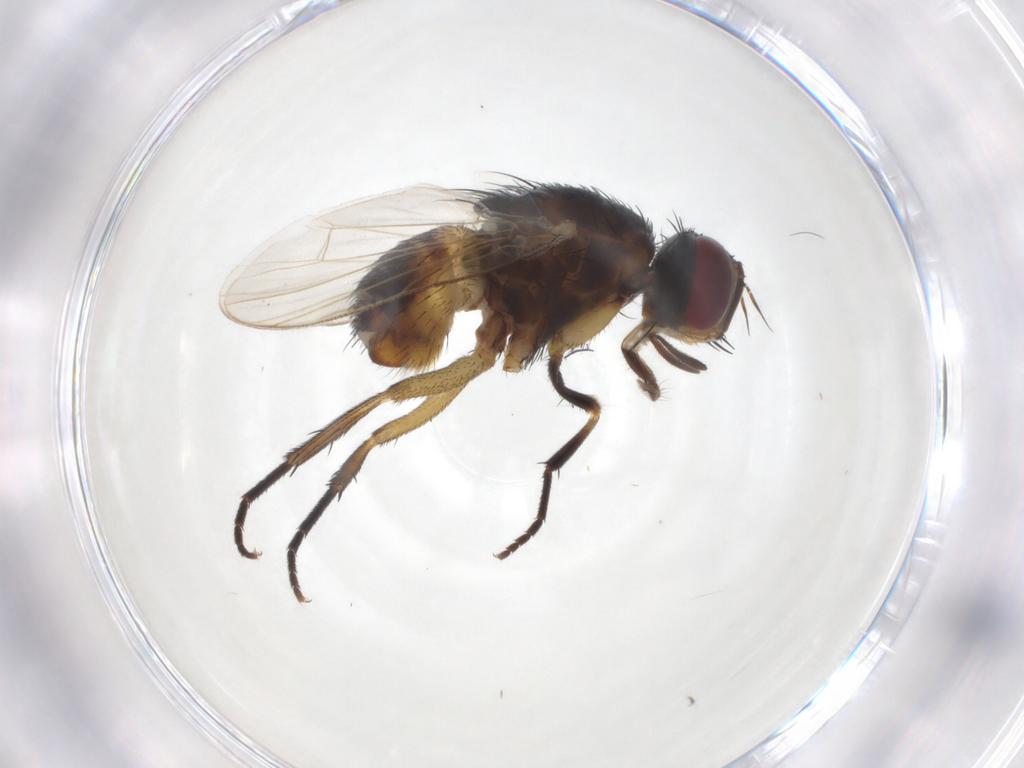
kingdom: Animalia
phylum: Arthropoda
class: Insecta
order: Diptera
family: Muscidae
